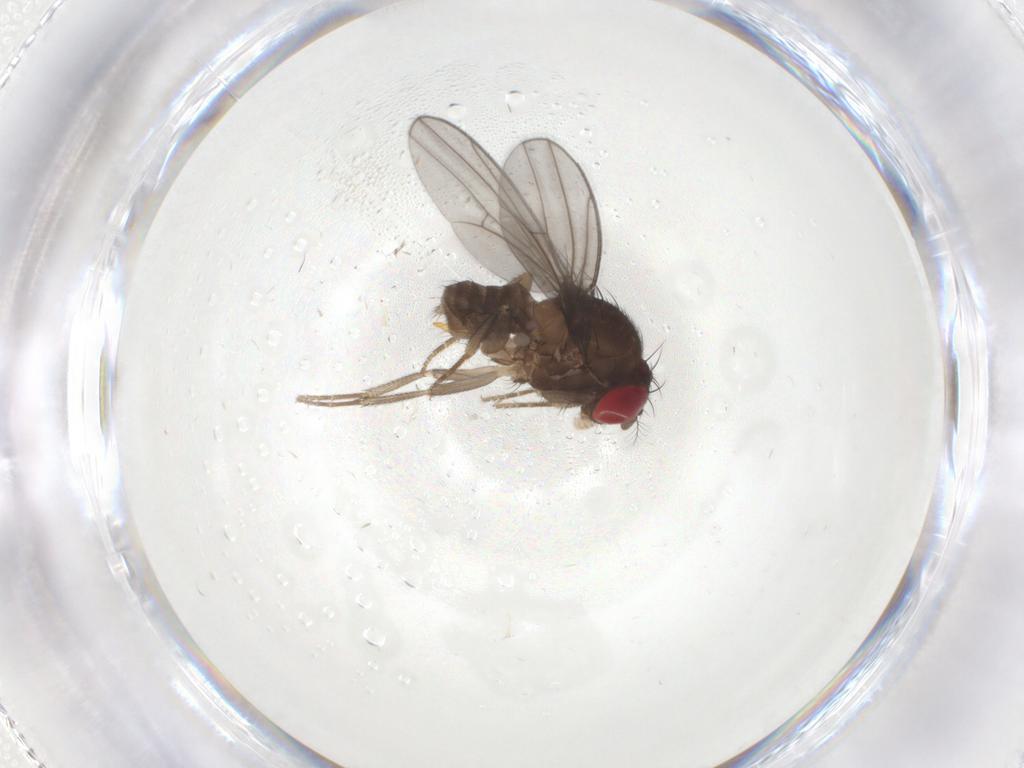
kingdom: Animalia
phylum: Arthropoda
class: Insecta
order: Diptera
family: Drosophilidae
